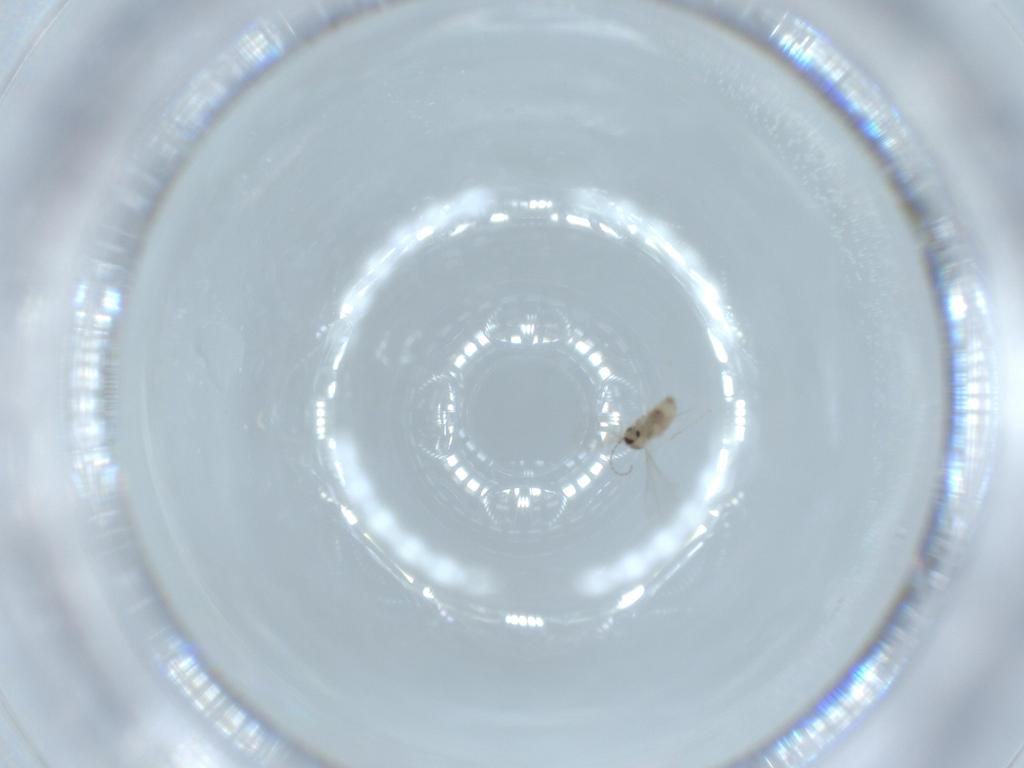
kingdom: Animalia
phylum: Arthropoda
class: Insecta
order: Diptera
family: Cecidomyiidae
